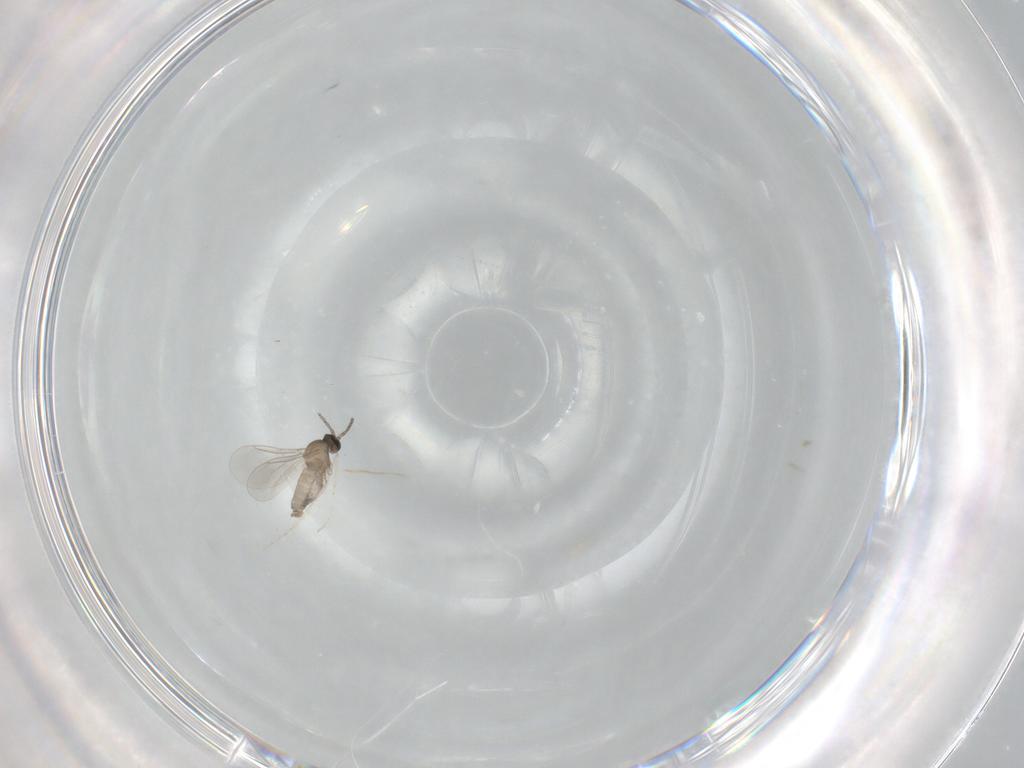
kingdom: Animalia
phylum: Arthropoda
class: Insecta
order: Diptera
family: Cecidomyiidae
